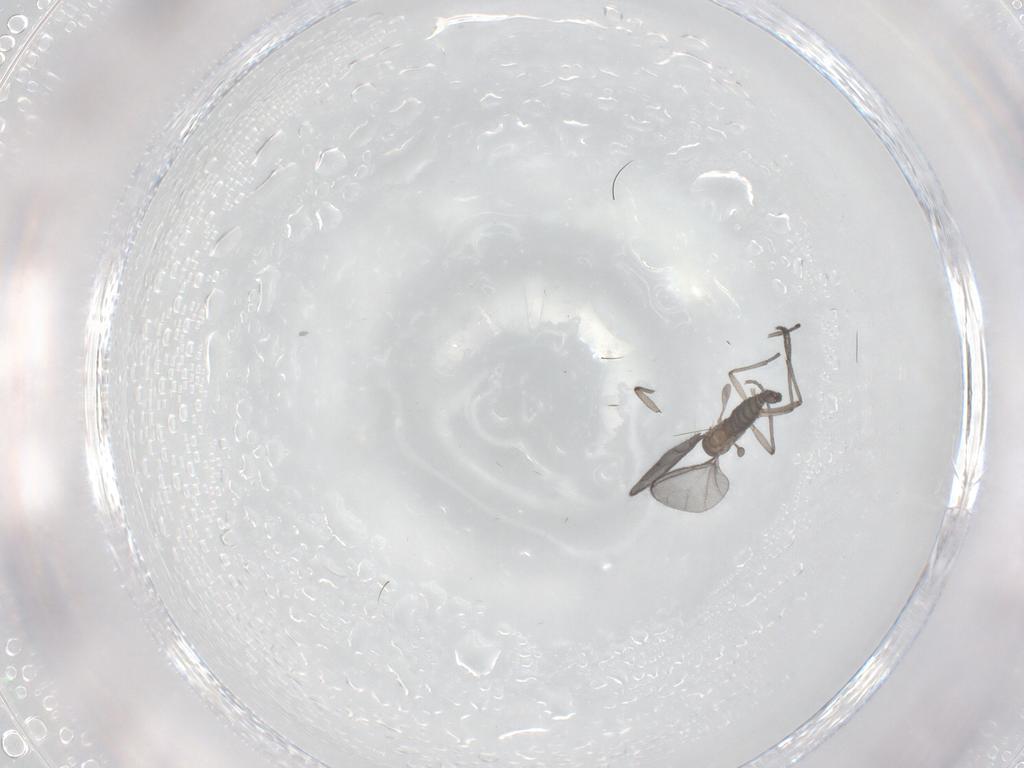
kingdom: Animalia
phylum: Arthropoda
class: Insecta
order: Diptera
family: Sciaridae
